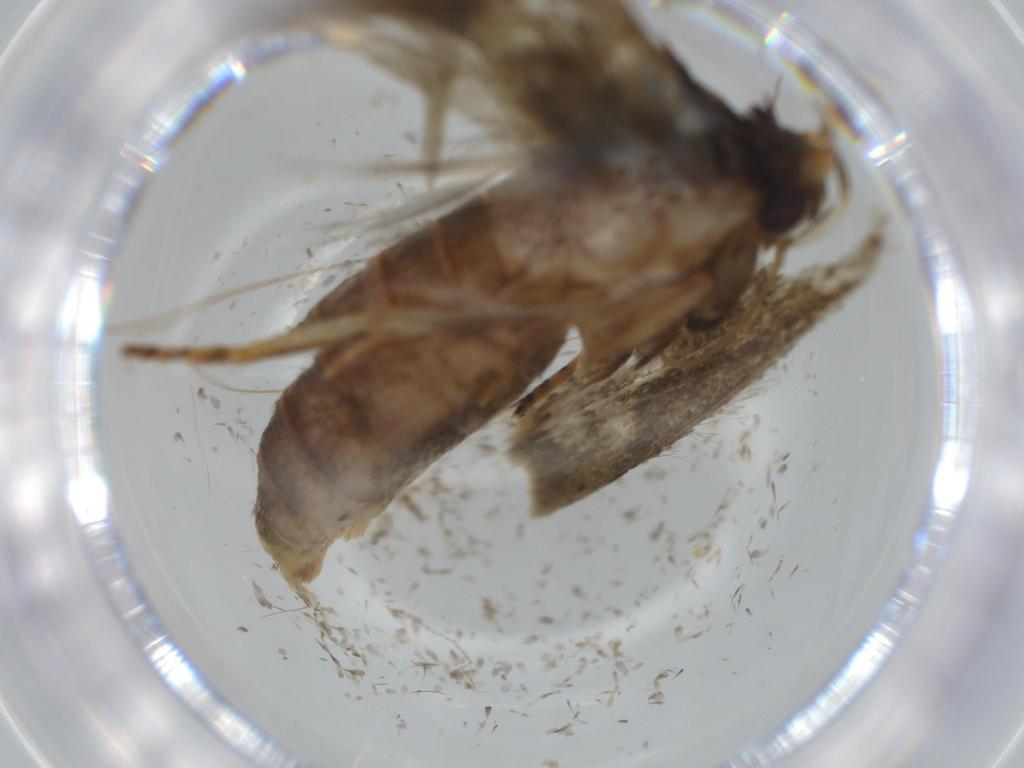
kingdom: Animalia
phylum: Arthropoda
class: Insecta
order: Lepidoptera
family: Blastobasidae
